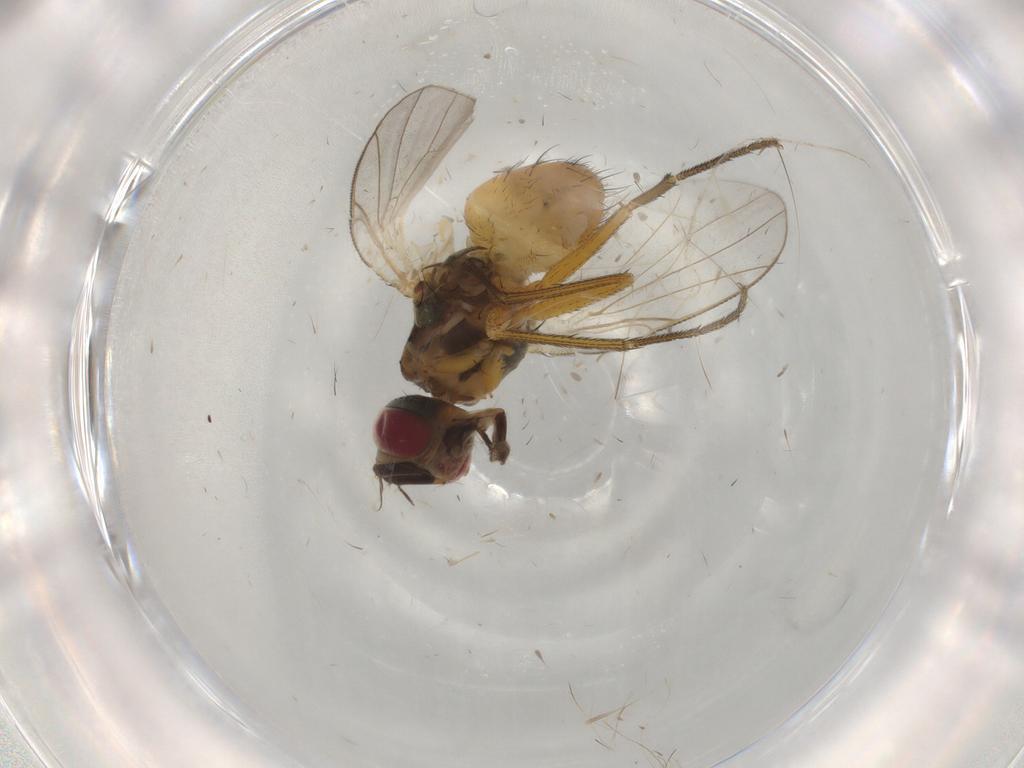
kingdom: Animalia
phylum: Arthropoda
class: Insecta
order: Diptera
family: Muscidae
